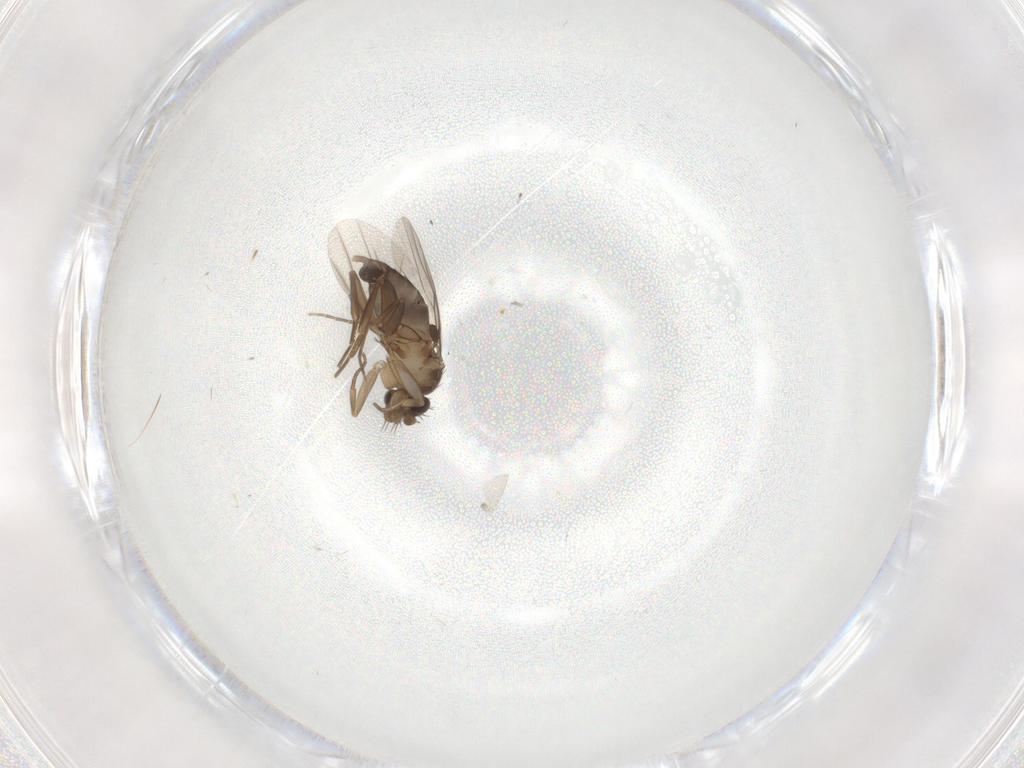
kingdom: Animalia
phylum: Arthropoda
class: Insecta
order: Diptera
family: Phoridae
